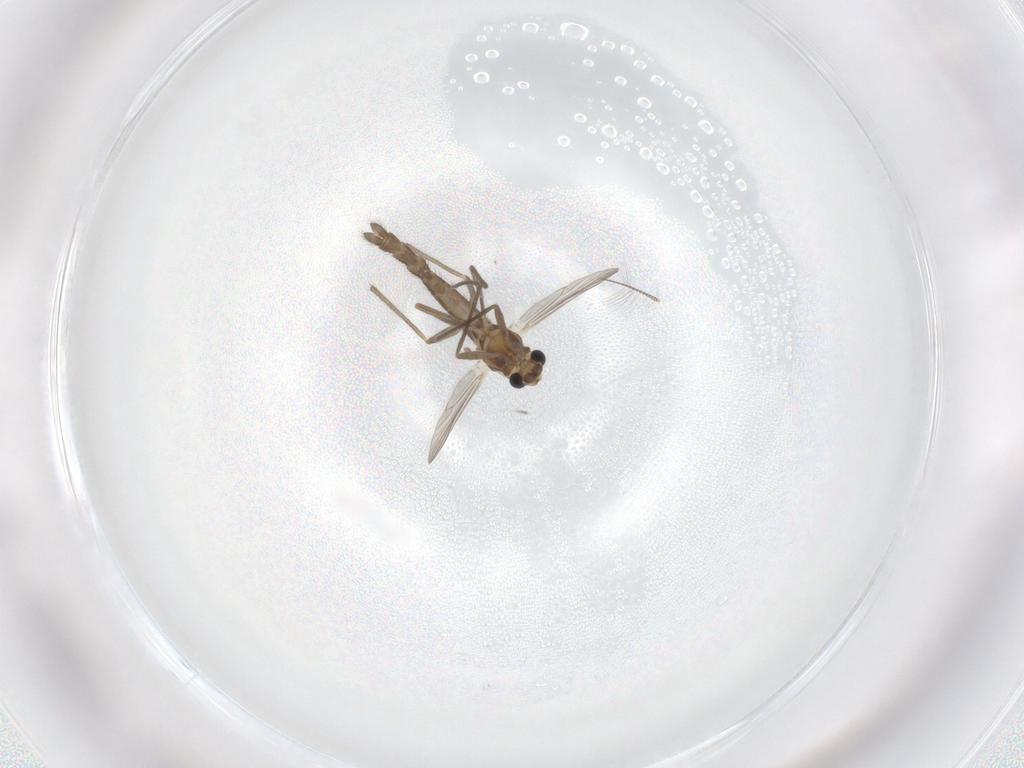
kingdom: Animalia
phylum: Arthropoda
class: Insecta
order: Diptera
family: Chironomidae
